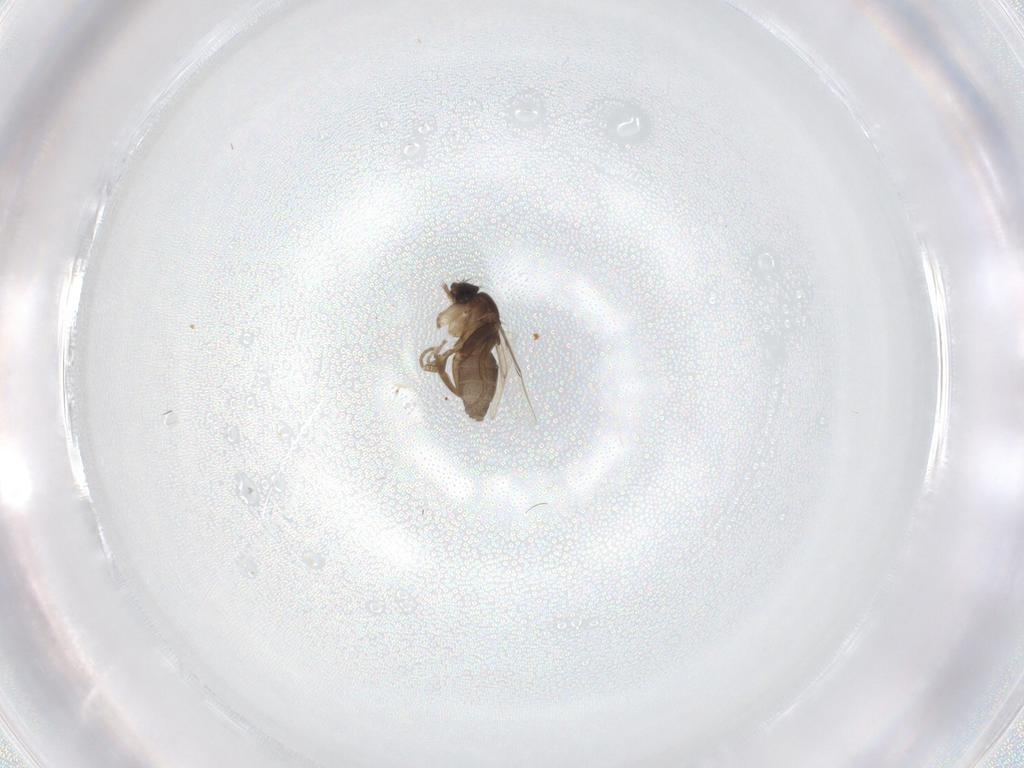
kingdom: Animalia
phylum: Arthropoda
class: Insecta
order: Diptera
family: Phoridae
